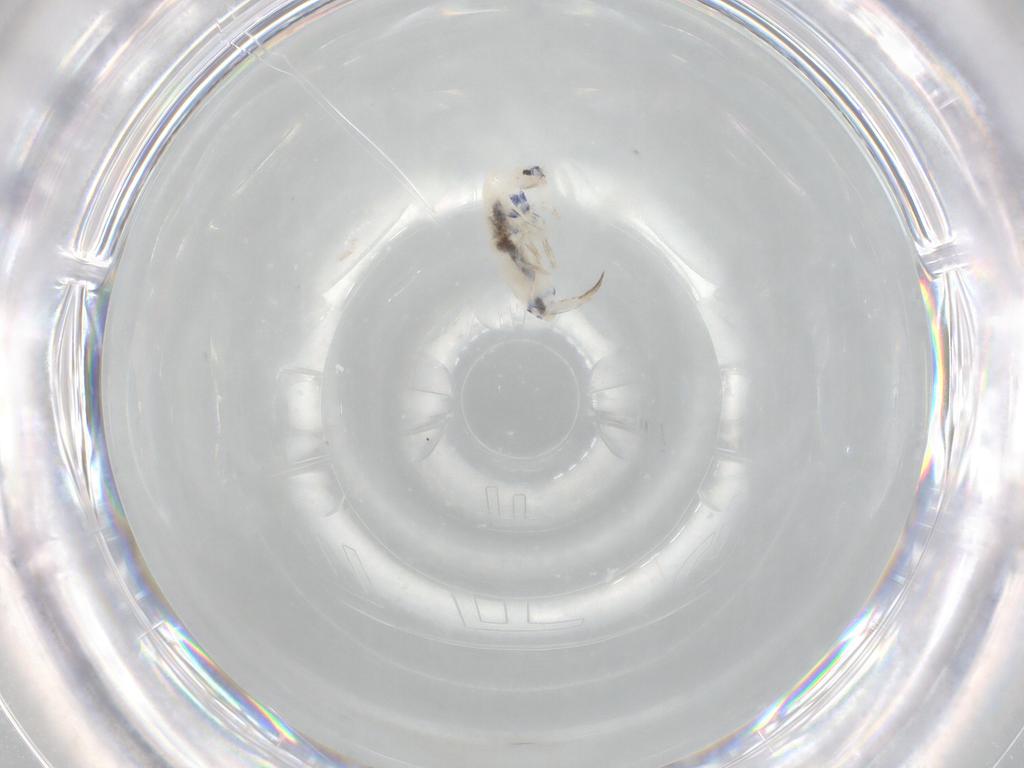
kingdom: Animalia
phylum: Arthropoda
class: Collembola
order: Entomobryomorpha
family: Entomobryidae
